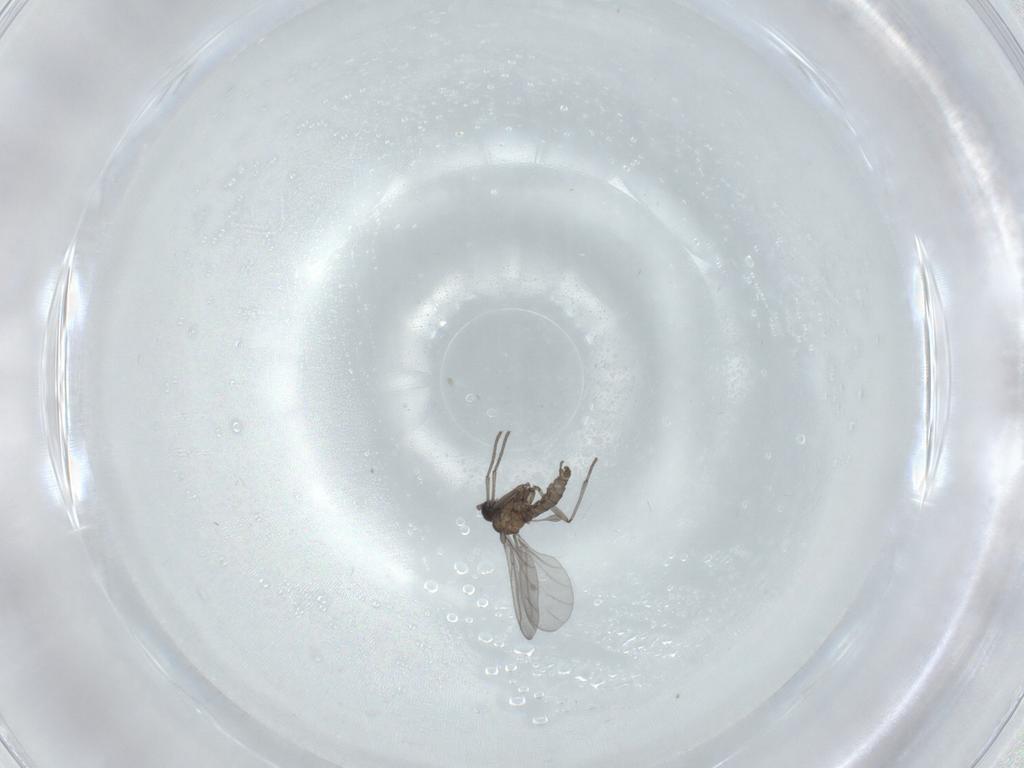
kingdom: Animalia
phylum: Arthropoda
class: Insecta
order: Diptera
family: Sciaridae
